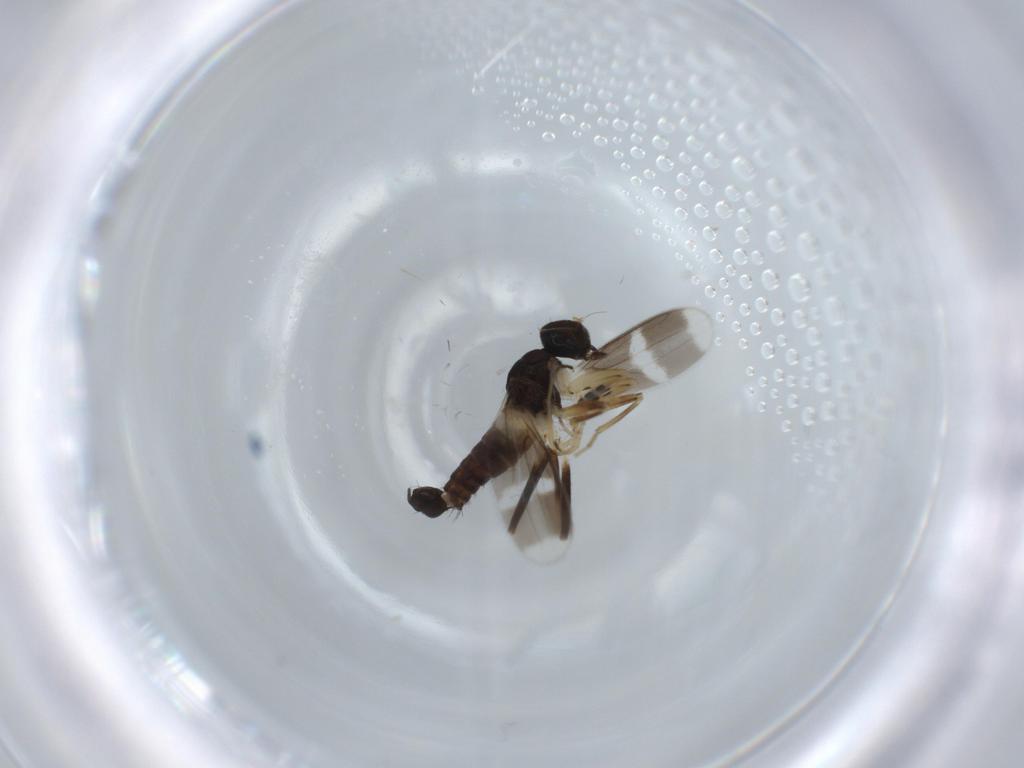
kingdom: Animalia
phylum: Arthropoda
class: Insecta
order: Diptera
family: Hybotidae
